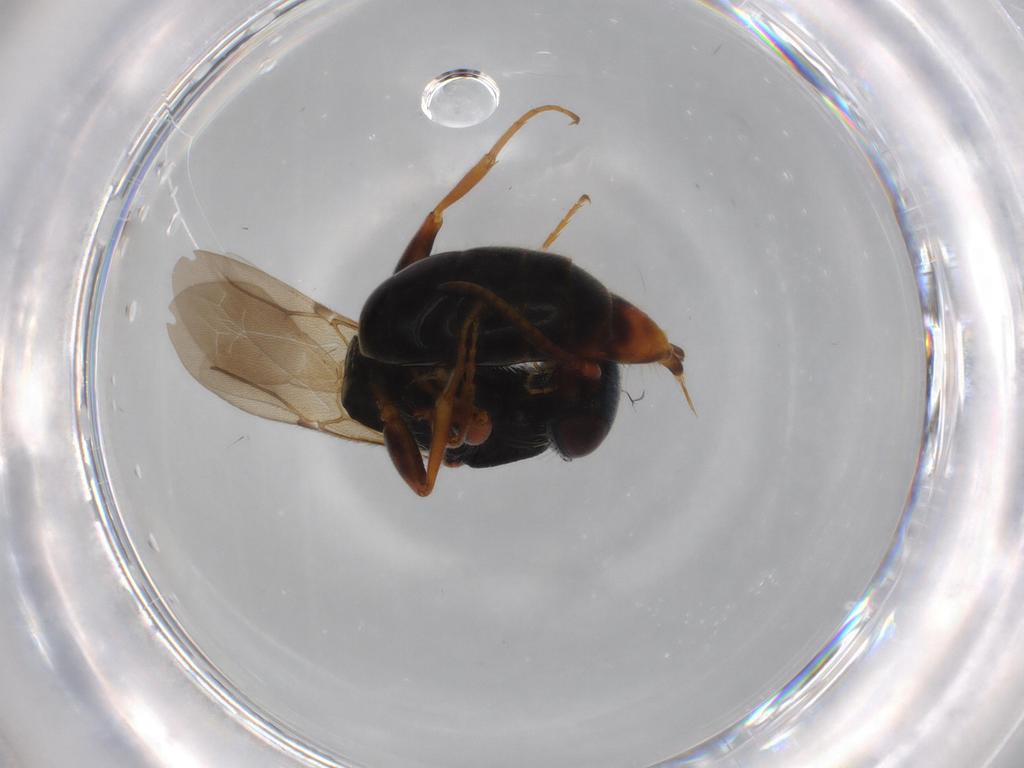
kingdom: Animalia
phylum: Arthropoda
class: Insecta
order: Hymenoptera
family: Bethylidae
